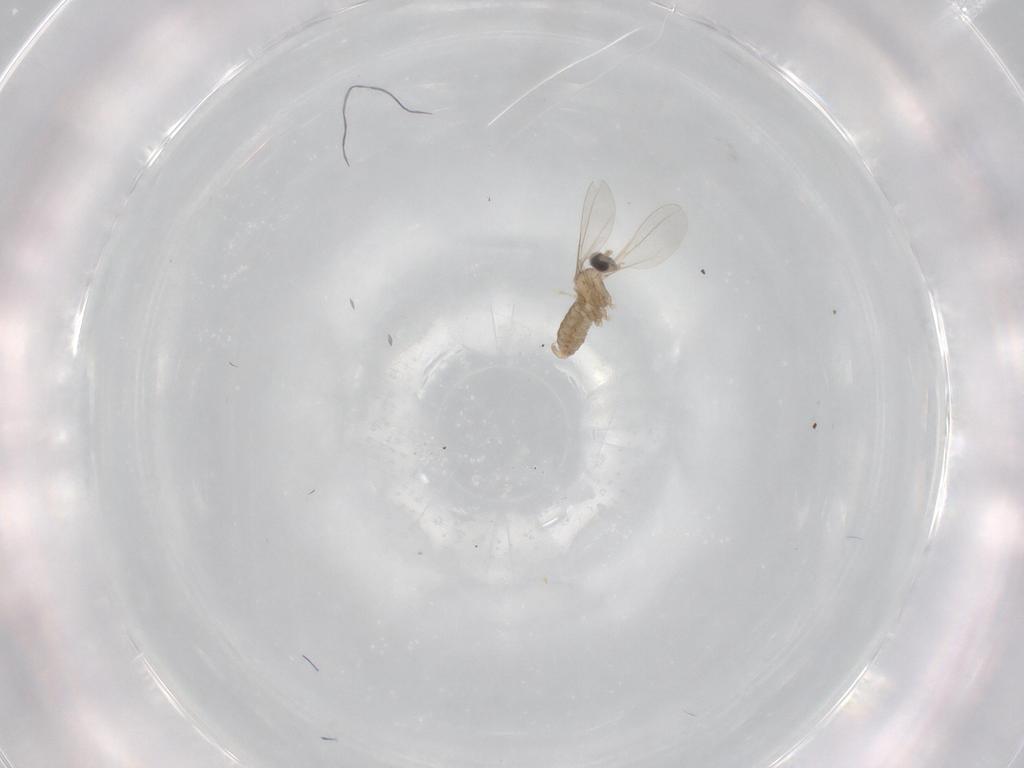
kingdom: Animalia
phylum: Arthropoda
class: Insecta
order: Diptera
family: Cecidomyiidae
